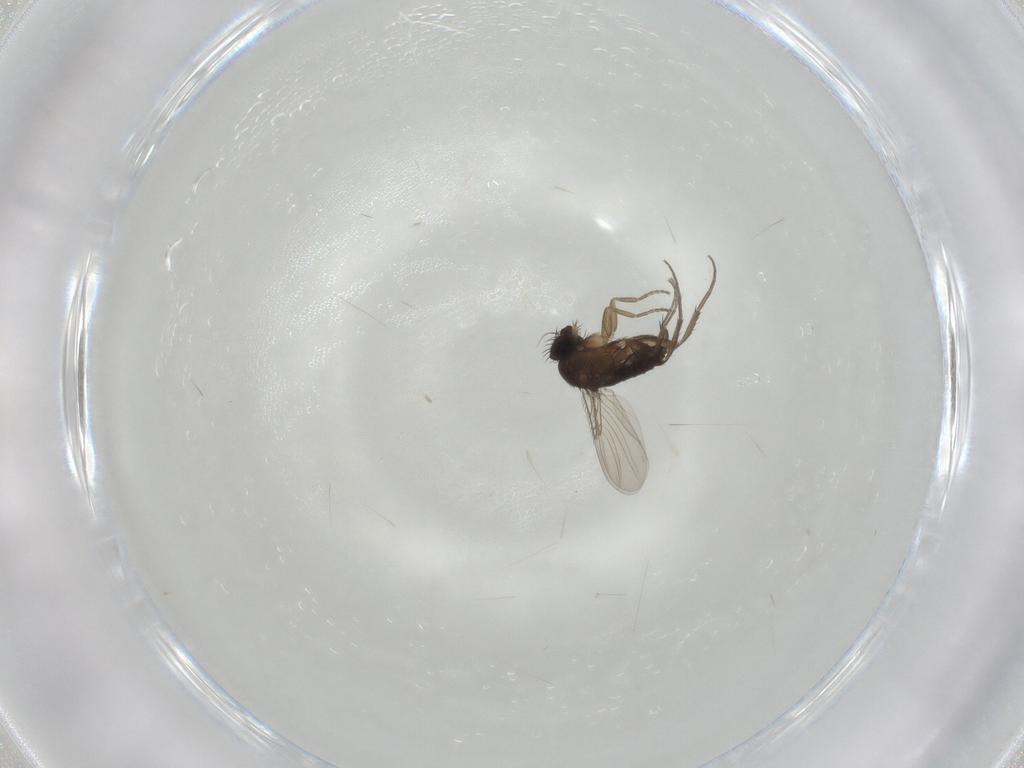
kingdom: Animalia
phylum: Arthropoda
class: Insecta
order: Diptera
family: Phoridae
